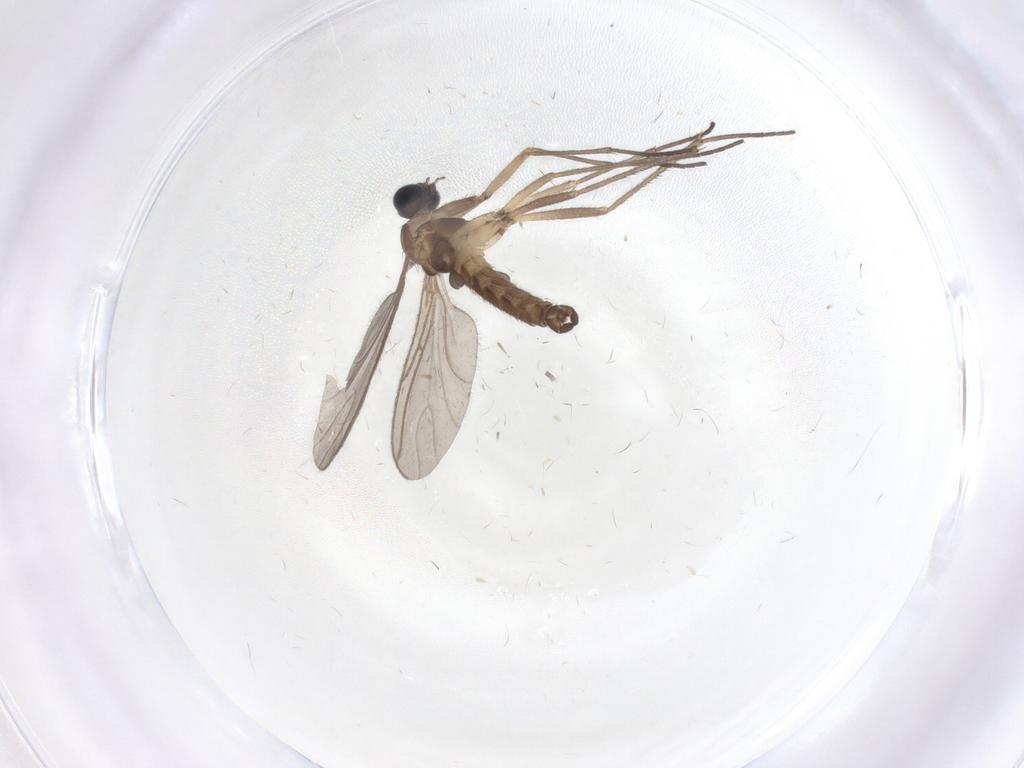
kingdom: Animalia
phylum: Arthropoda
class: Insecta
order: Diptera
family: Sciaridae
